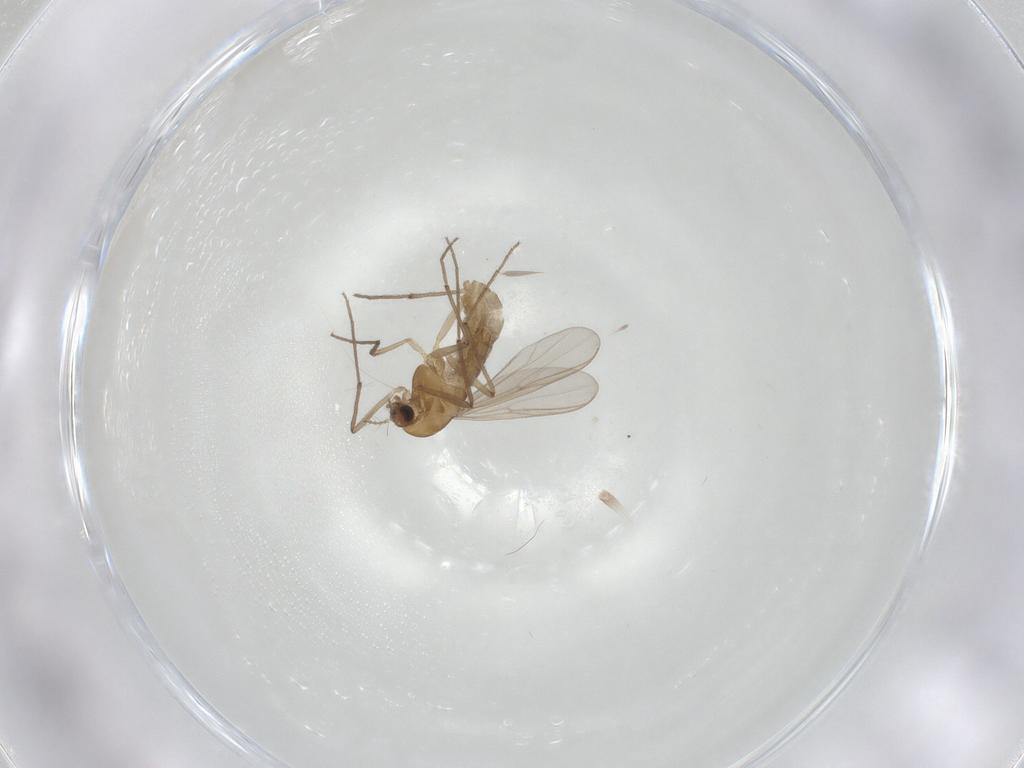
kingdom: Animalia
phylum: Arthropoda
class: Insecta
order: Diptera
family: Chironomidae
